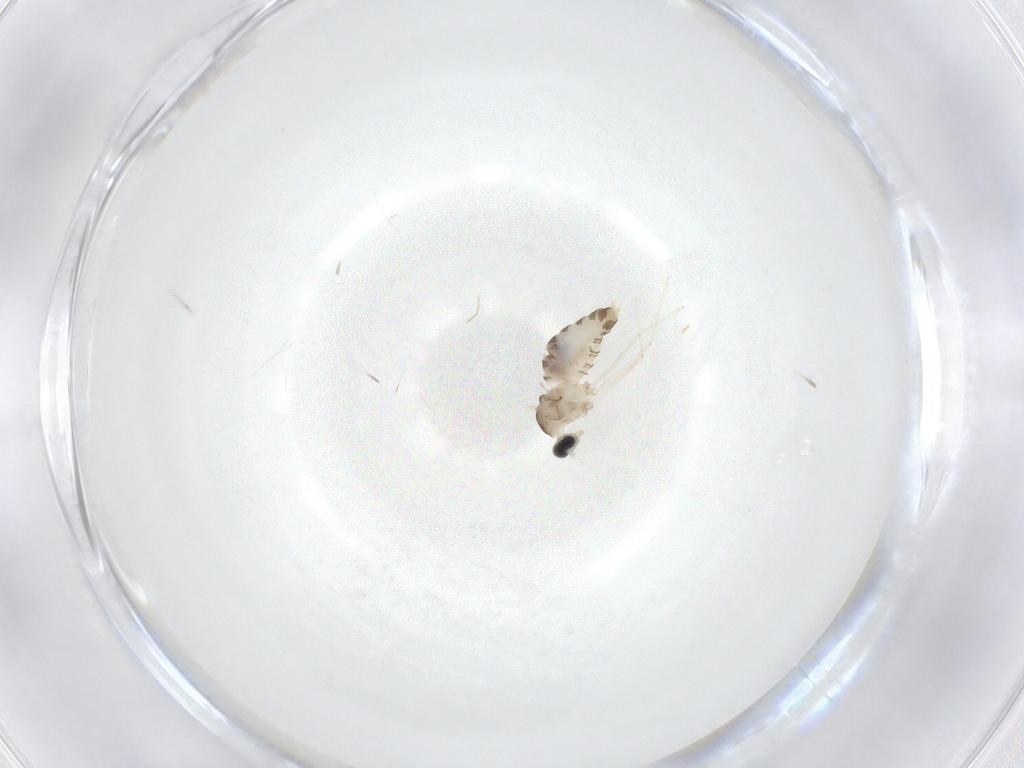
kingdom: Animalia
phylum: Arthropoda
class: Insecta
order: Diptera
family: Cecidomyiidae
